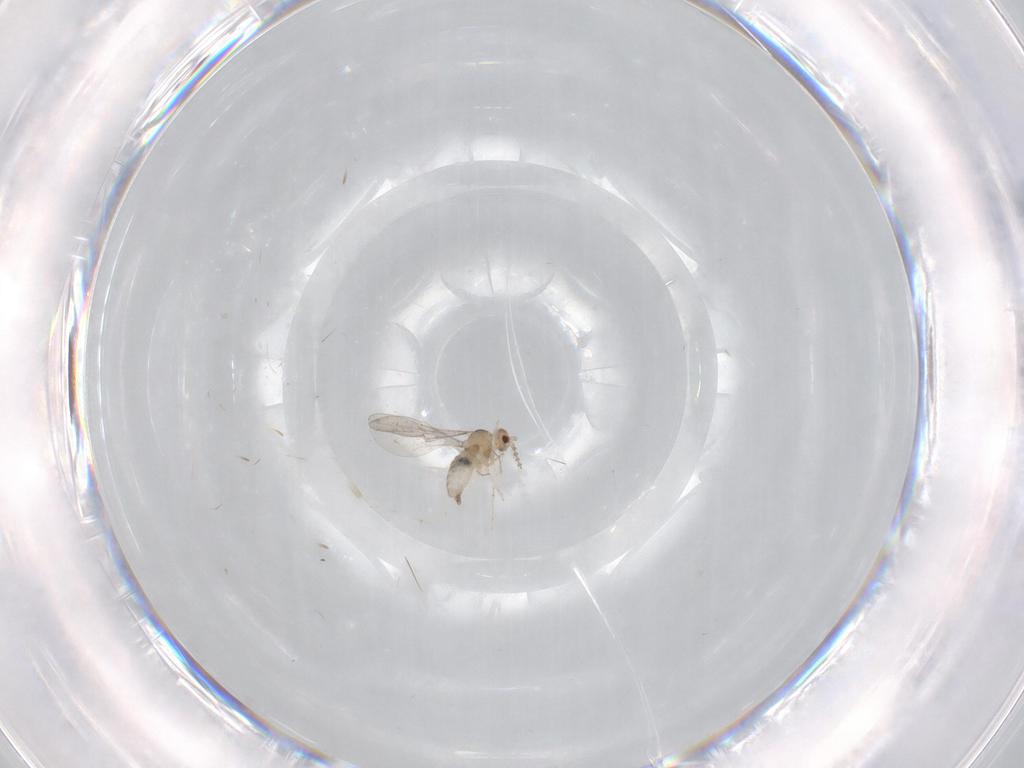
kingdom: Animalia
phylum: Arthropoda
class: Insecta
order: Diptera
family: Cecidomyiidae
